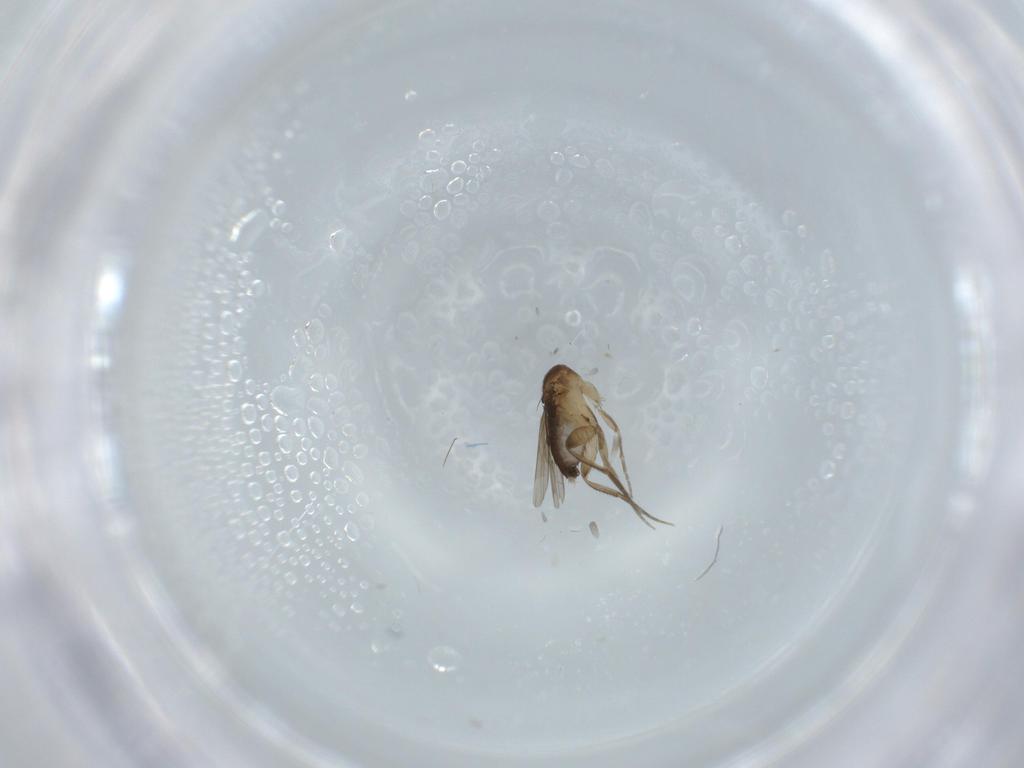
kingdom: Animalia
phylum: Arthropoda
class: Insecta
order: Diptera
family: Phoridae
